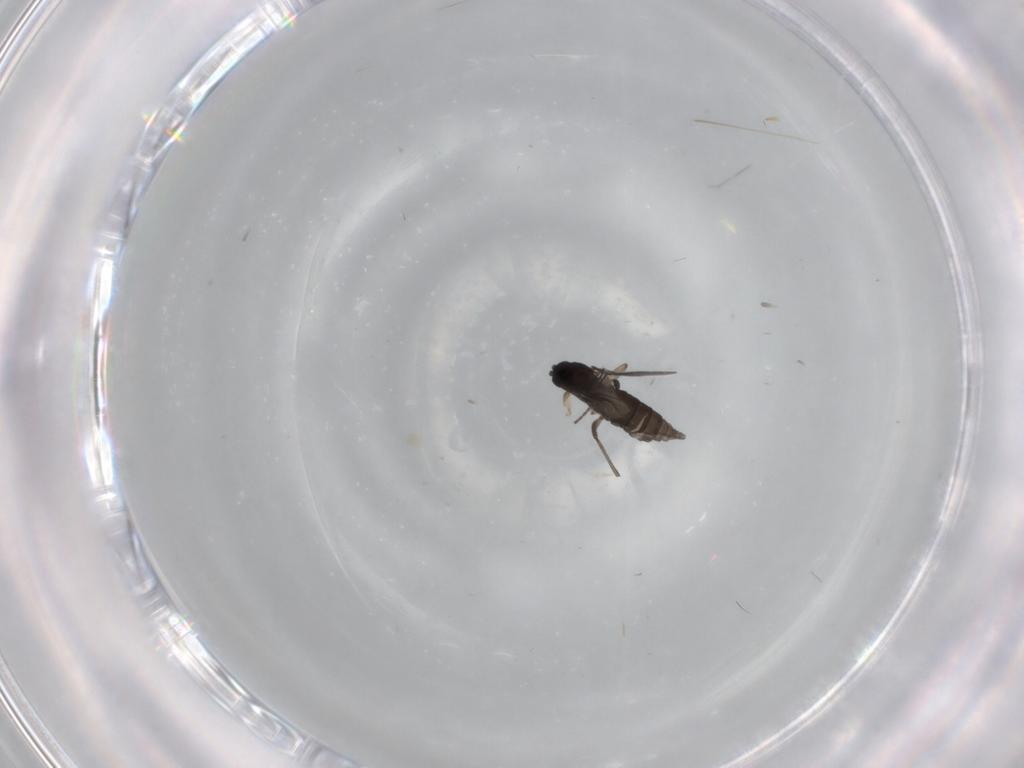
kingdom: Animalia
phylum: Arthropoda
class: Insecta
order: Diptera
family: Sciaridae
